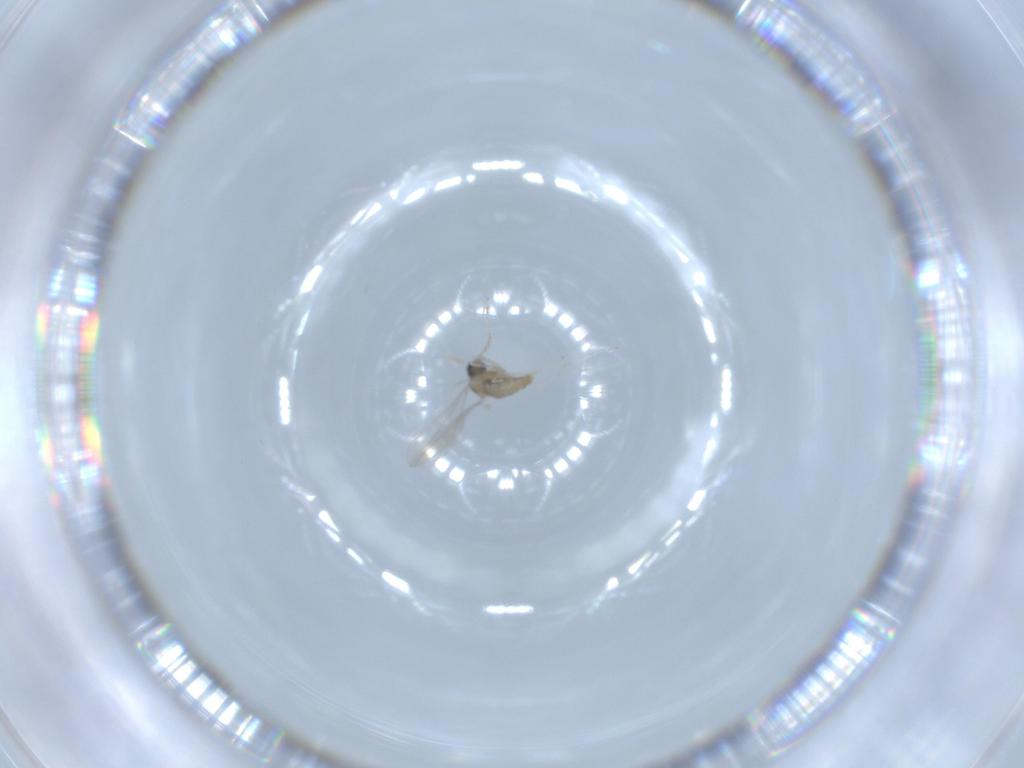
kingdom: Animalia
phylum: Arthropoda
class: Insecta
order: Diptera
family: Cecidomyiidae
